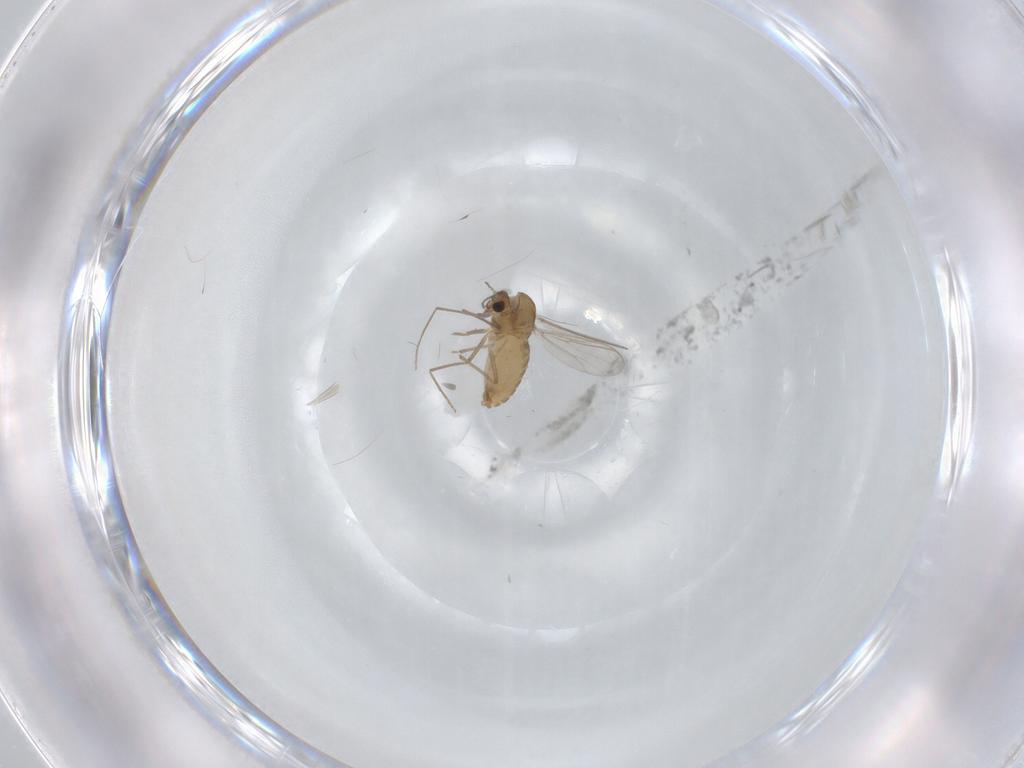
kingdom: Animalia
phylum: Arthropoda
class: Insecta
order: Diptera
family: Chironomidae
